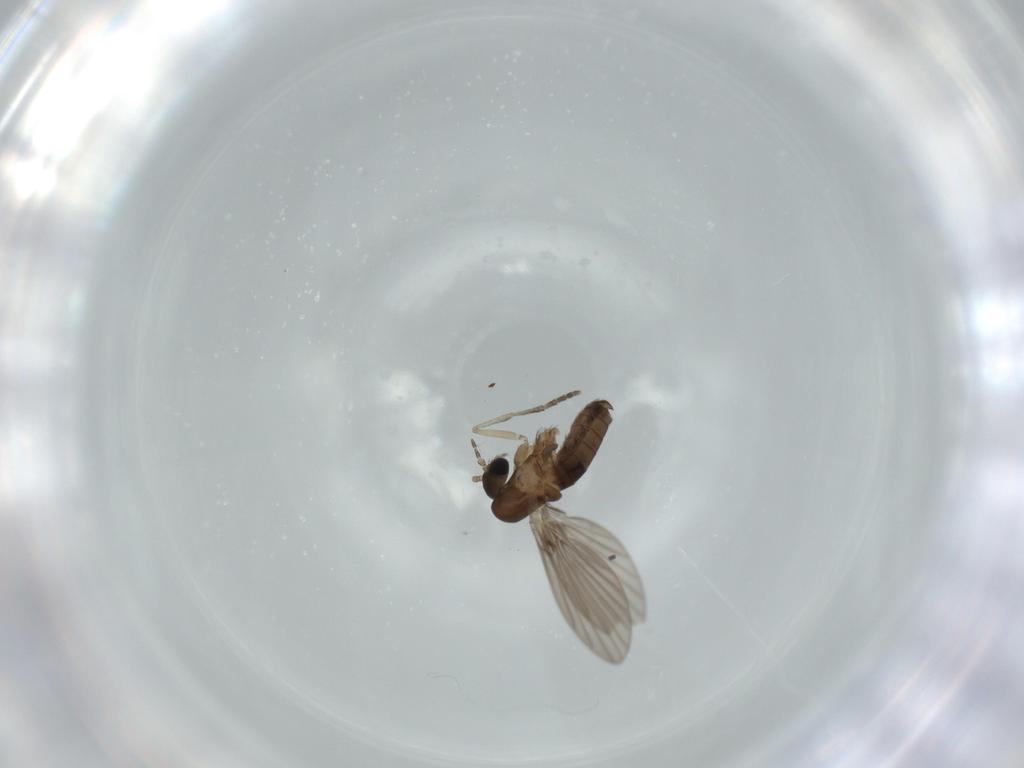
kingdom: Animalia
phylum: Arthropoda
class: Insecta
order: Diptera
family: Psychodidae
